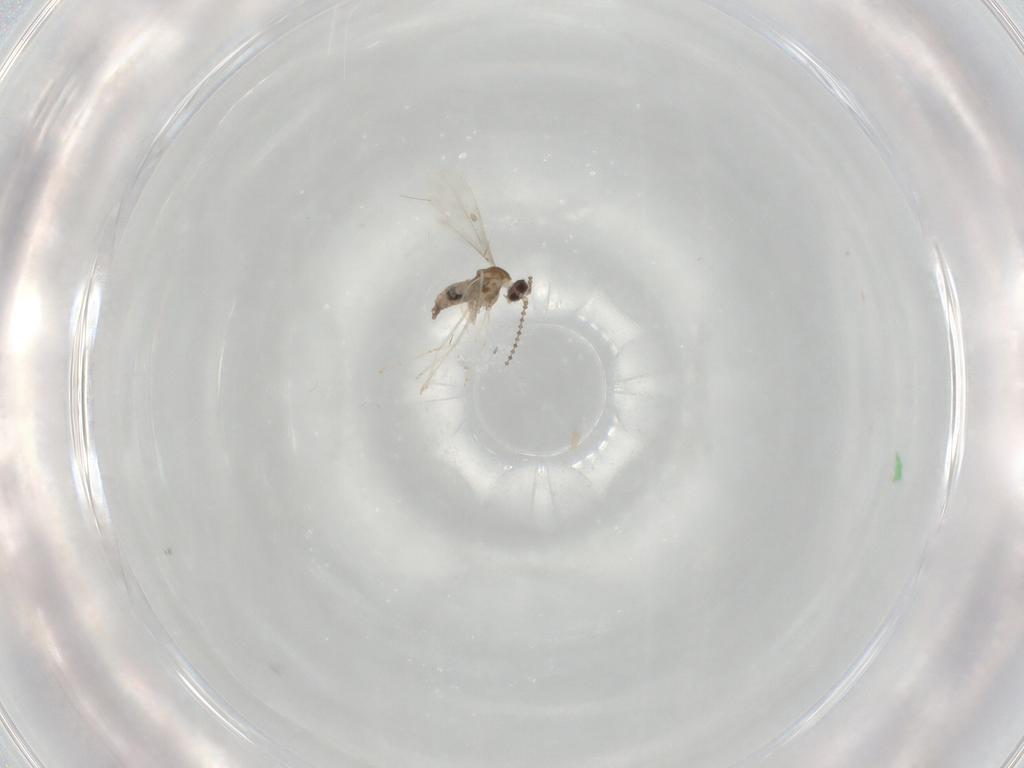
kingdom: Animalia
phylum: Arthropoda
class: Insecta
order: Diptera
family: Cecidomyiidae
